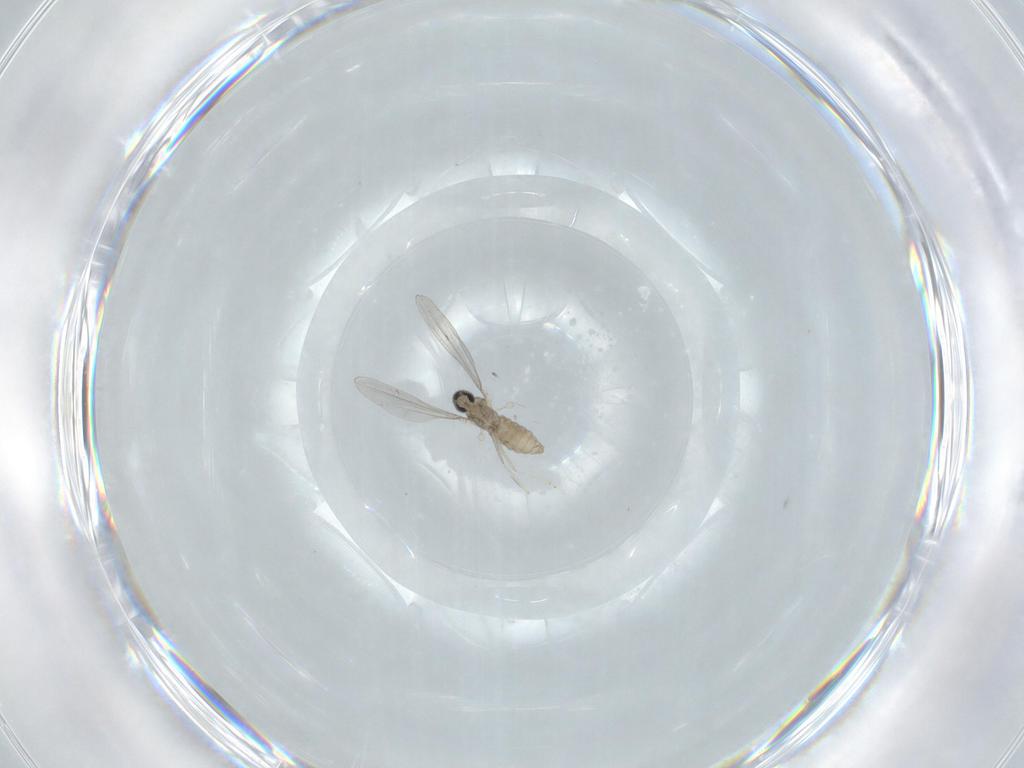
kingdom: Animalia
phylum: Arthropoda
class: Insecta
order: Diptera
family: Cecidomyiidae
